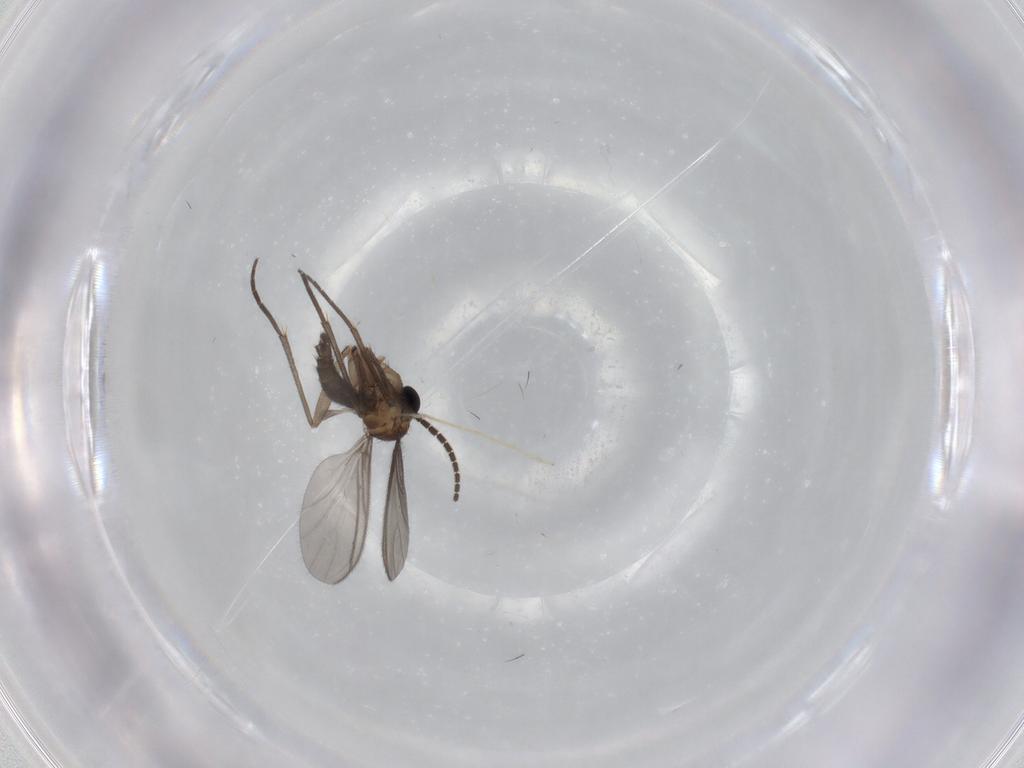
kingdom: Animalia
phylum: Arthropoda
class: Insecta
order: Diptera
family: Sciaridae
